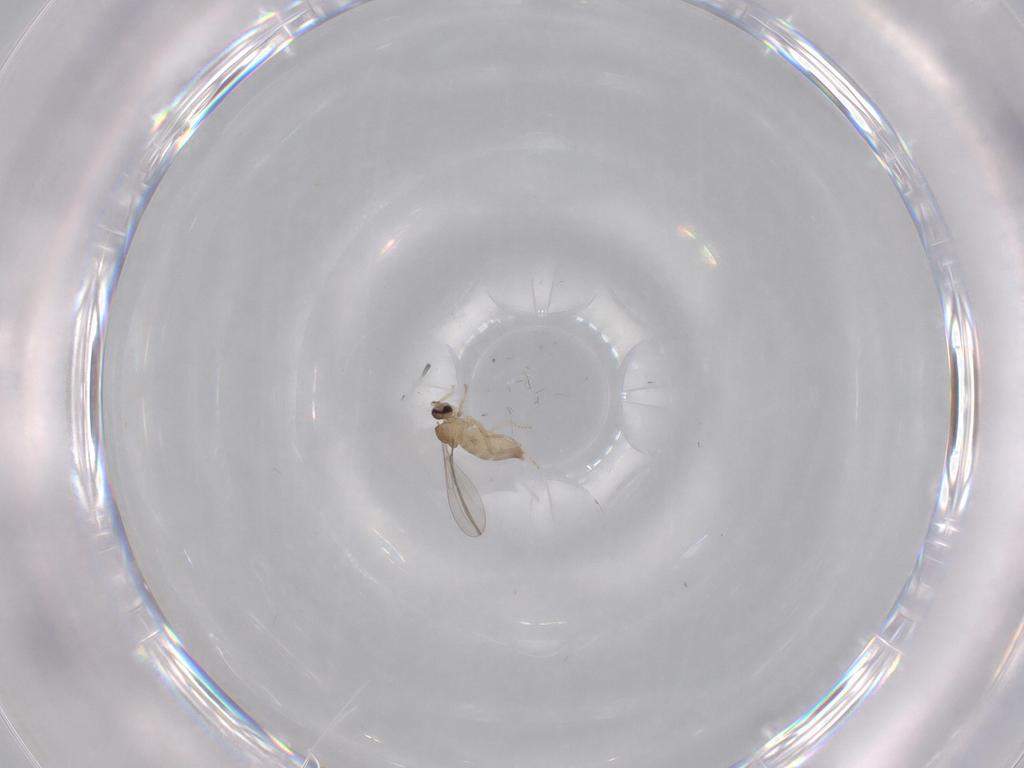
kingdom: Animalia
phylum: Arthropoda
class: Insecta
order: Diptera
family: Cecidomyiidae
